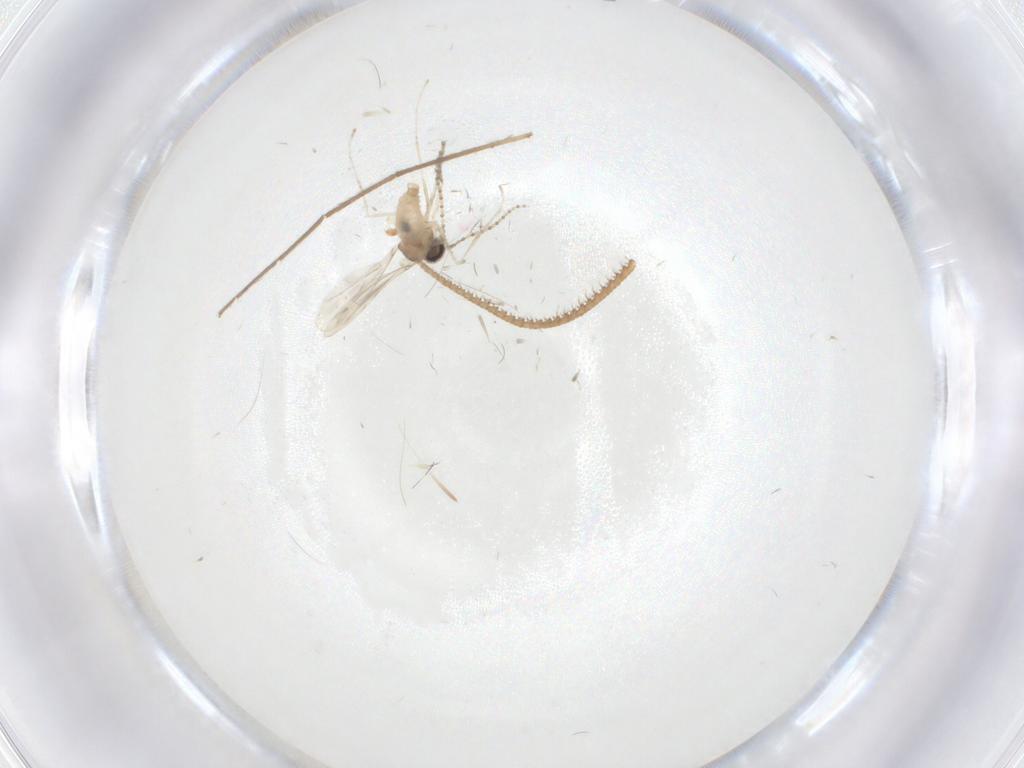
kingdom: Animalia
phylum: Arthropoda
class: Insecta
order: Diptera
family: Cecidomyiidae
